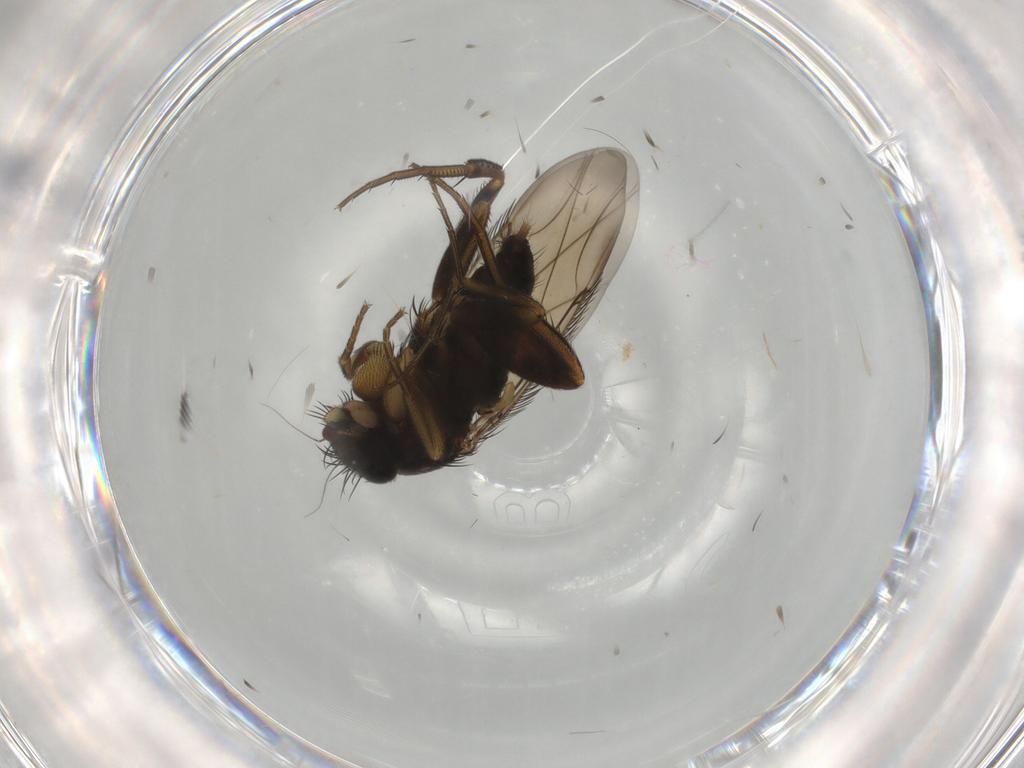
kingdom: Animalia
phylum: Arthropoda
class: Insecta
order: Diptera
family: Phoridae
